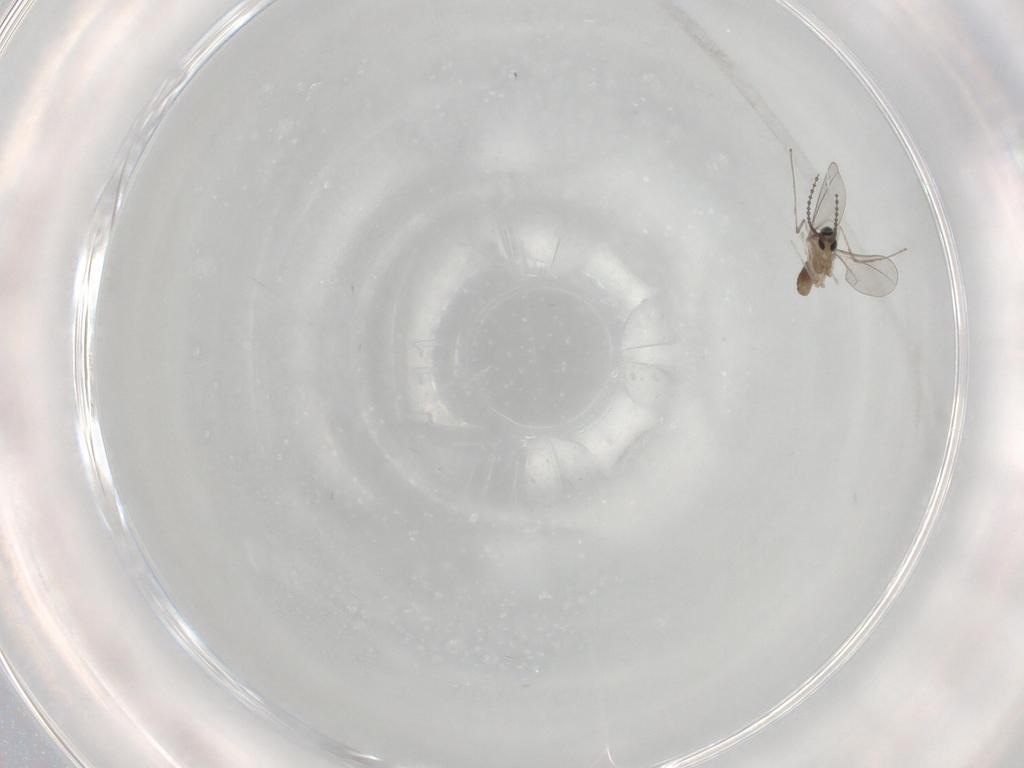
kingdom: Animalia
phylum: Arthropoda
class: Insecta
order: Diptera
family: Cecidomyiidae
